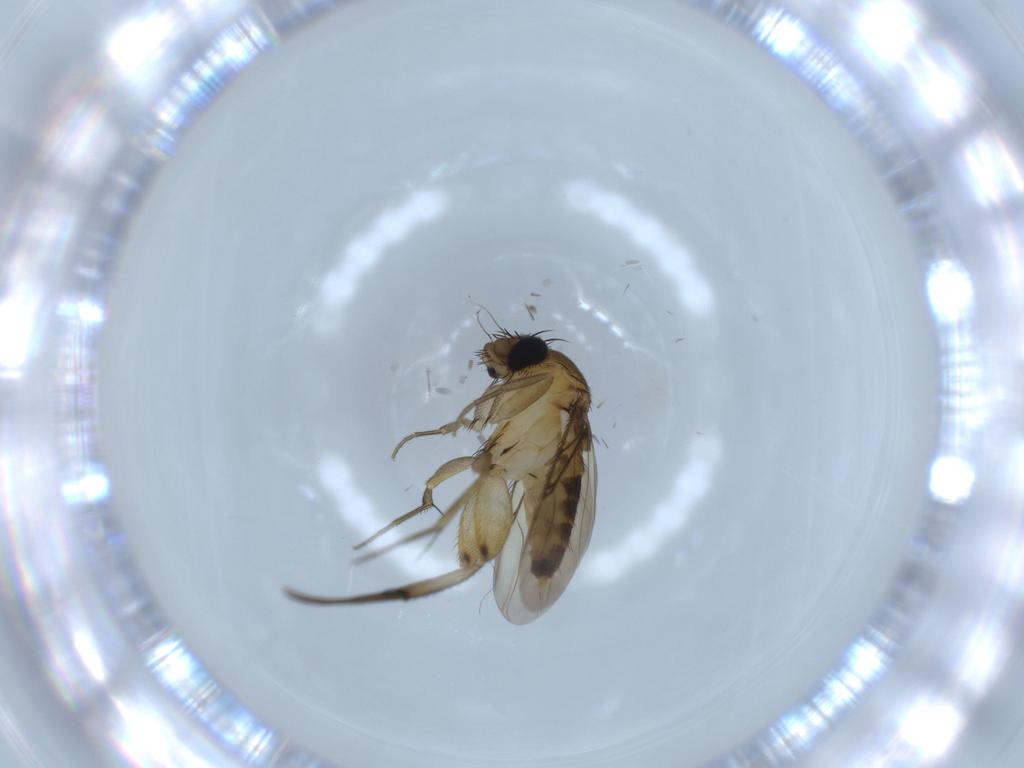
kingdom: Animalia
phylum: Arthropoda
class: Insecta
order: Diptera
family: Phoridae
